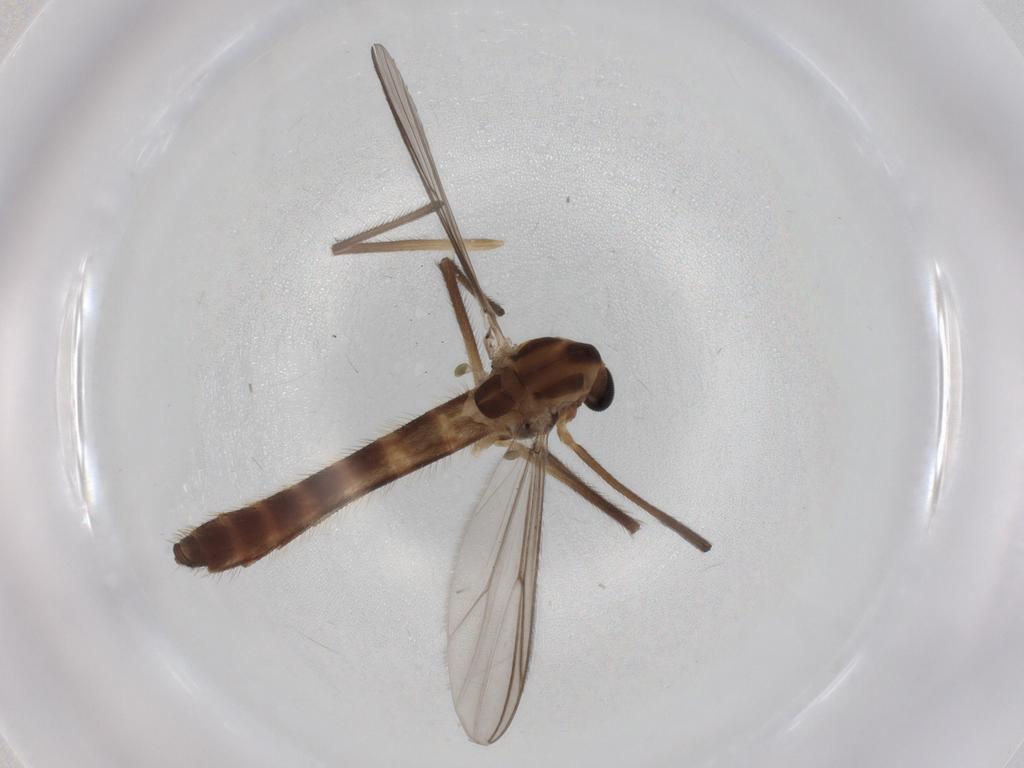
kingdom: Animalia
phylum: Arthropoda
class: Insecta
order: Diptera
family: Chironomidae
